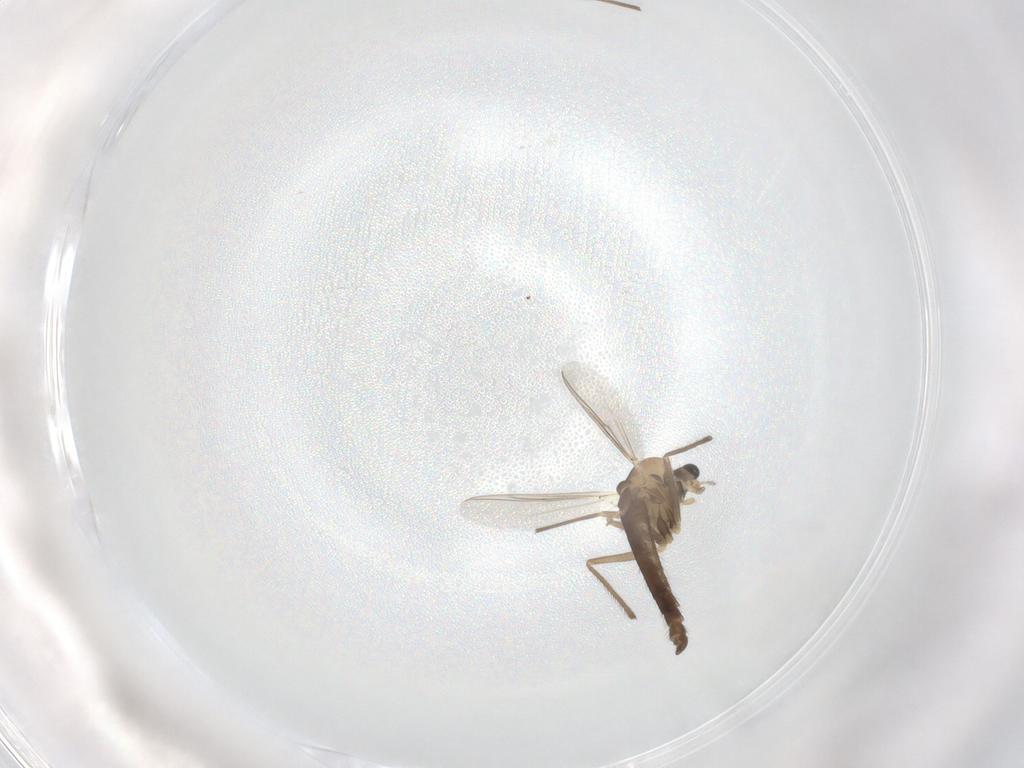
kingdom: Animalia
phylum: Arthropoda
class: Insecta
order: Diptera
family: Chironomidae
